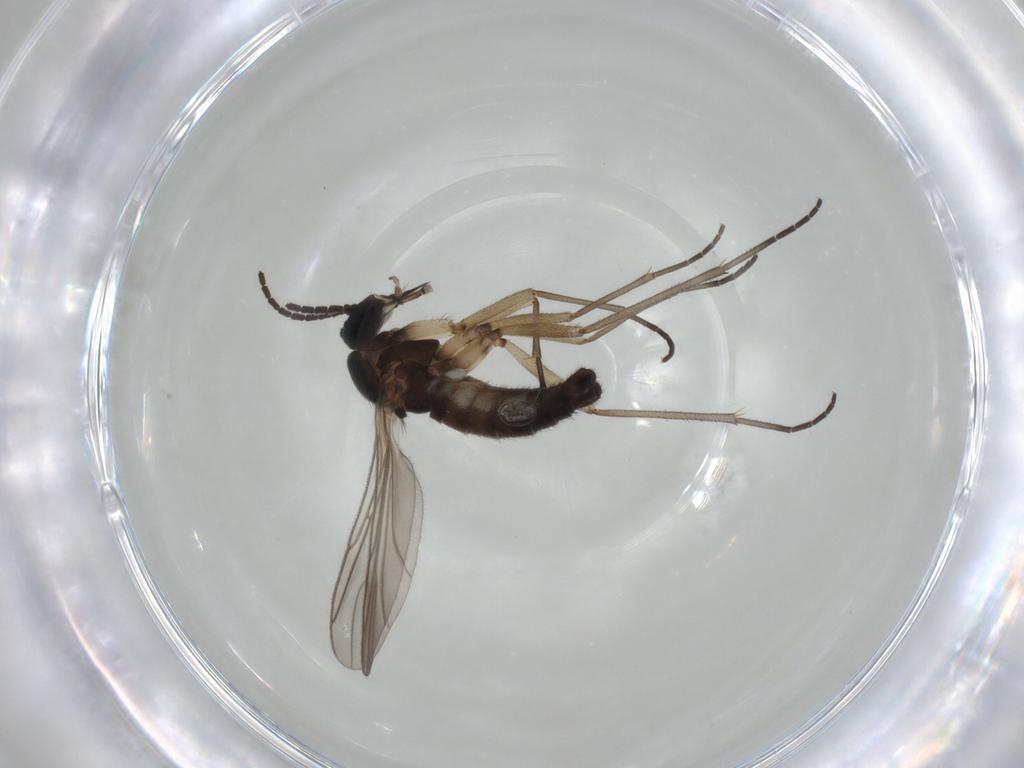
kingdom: Animalia
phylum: Arthropoda
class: Insecta
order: Diptera
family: Sciaridae
